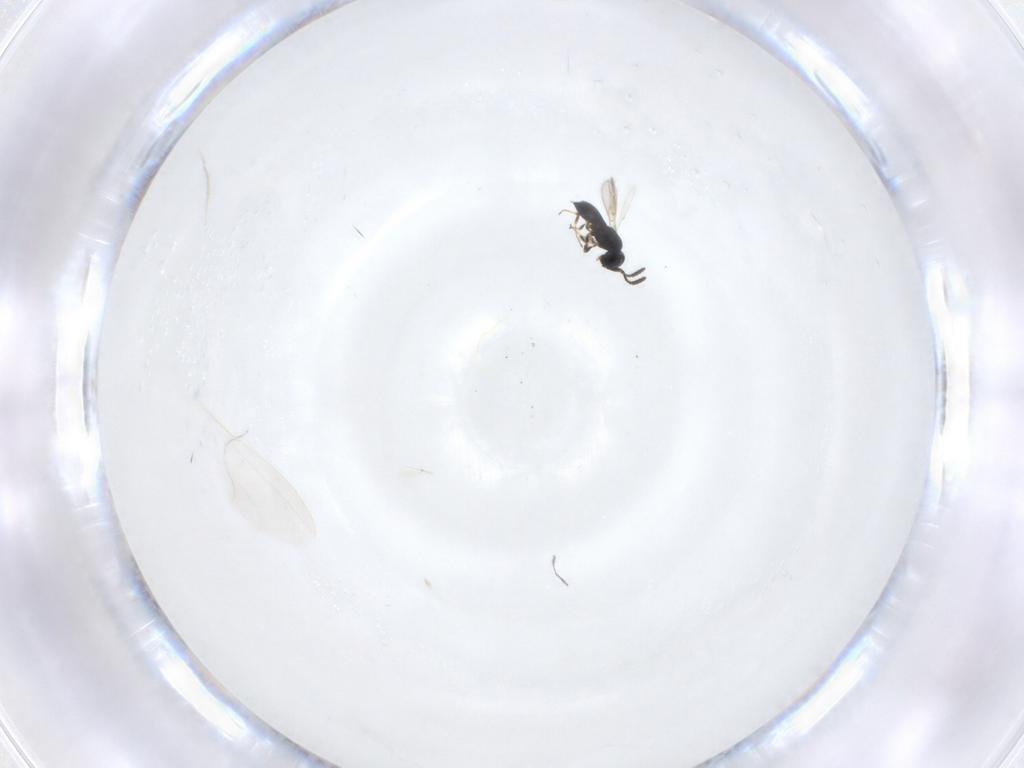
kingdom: Animalia
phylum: Arthropoda
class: Insecta
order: Hymenoptera
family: Scelionidae
